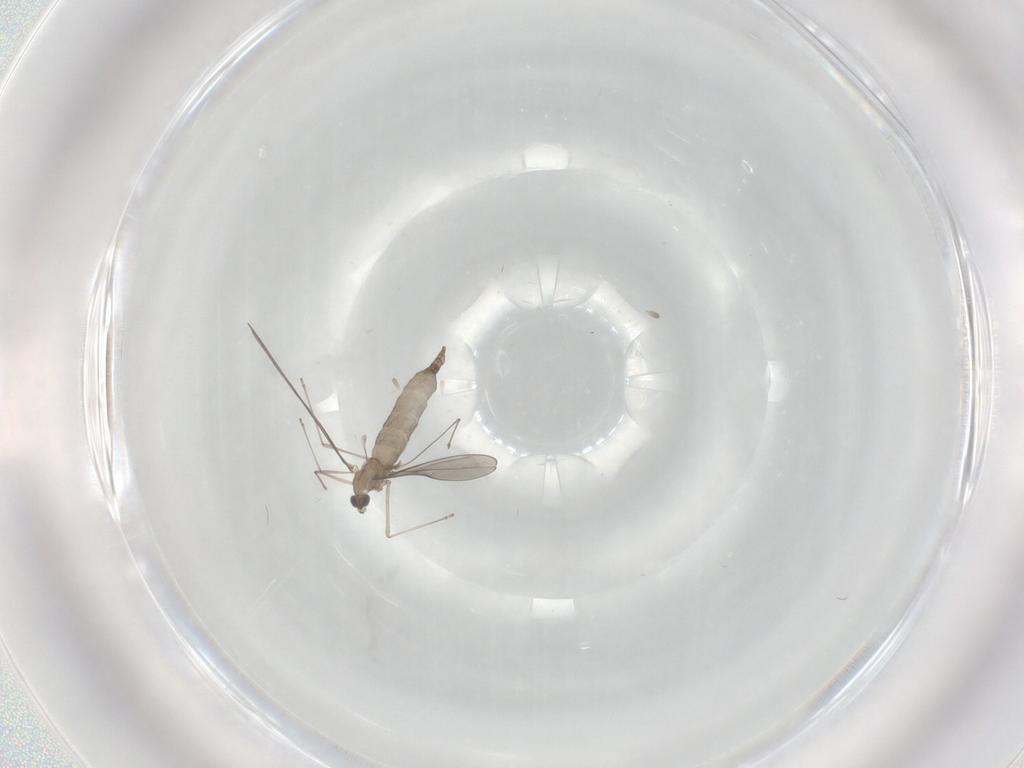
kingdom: Animalia
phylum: Arthropoda
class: Insecta
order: Diptera
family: Cecidomyiidae
